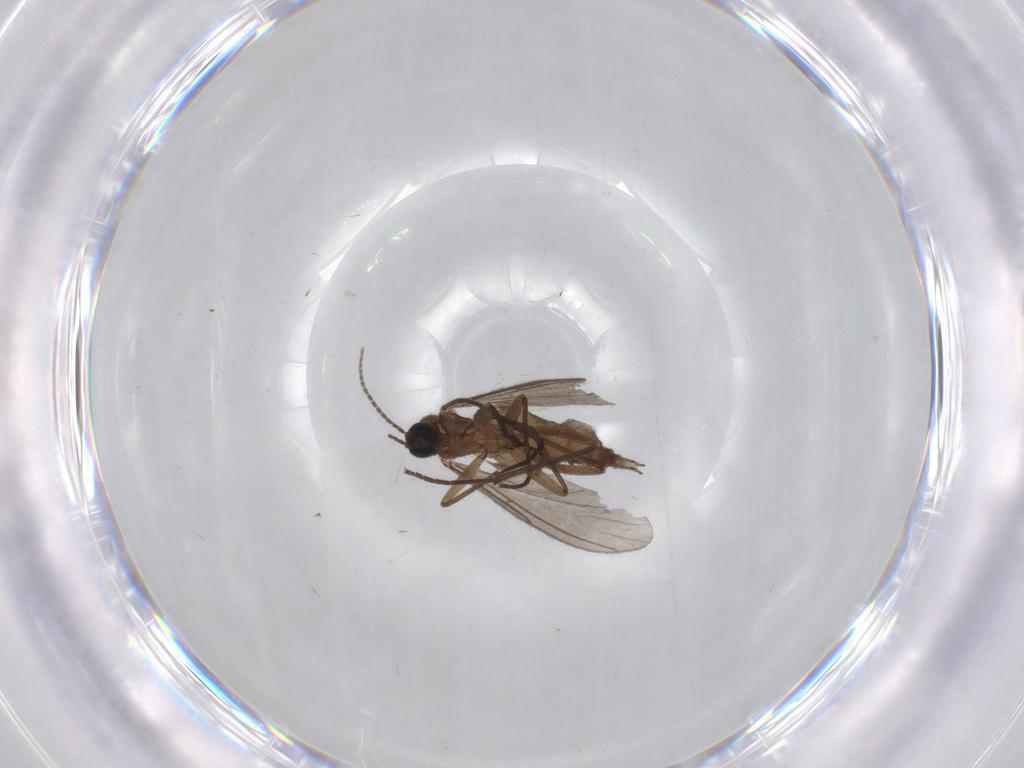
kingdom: Animalia
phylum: Arthropoda
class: Insecta
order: Diptera
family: Sciaridae
